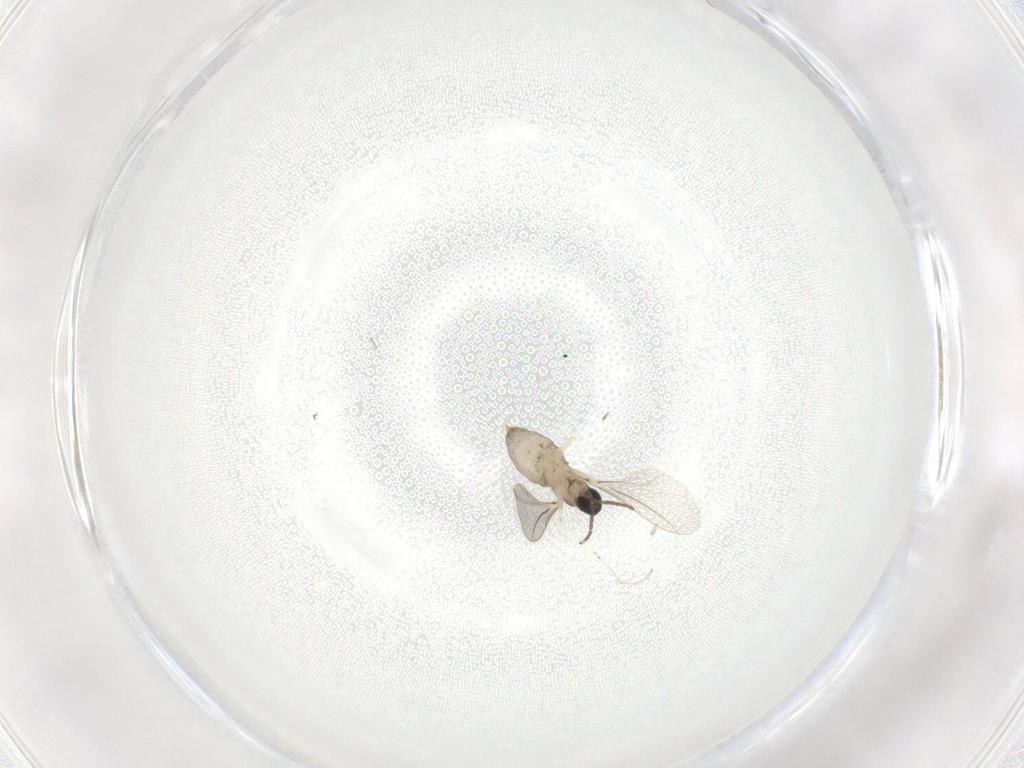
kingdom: Animalia
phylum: Arthropoda
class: Insecta
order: Diptera
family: Cecidomyiidae
